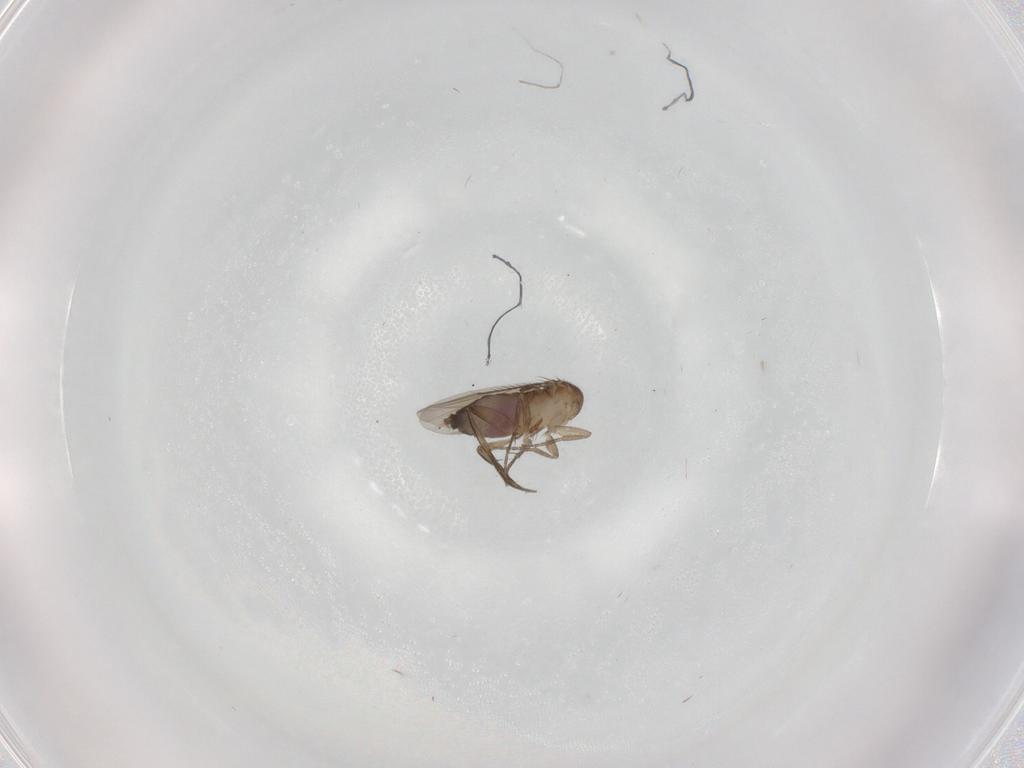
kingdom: Animalia
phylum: Arthropoda
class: Insecta
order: Diptera
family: Phoridae
